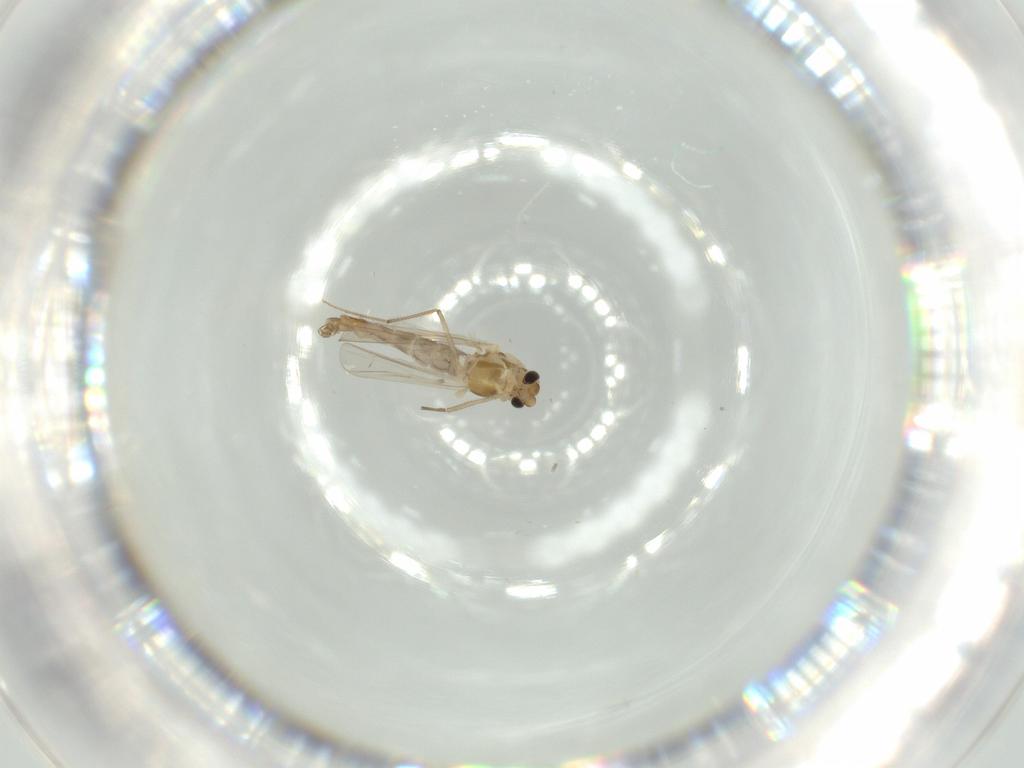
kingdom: Animalia
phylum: Arthropoda
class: Insecta
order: Diptera
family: Chironomidae
